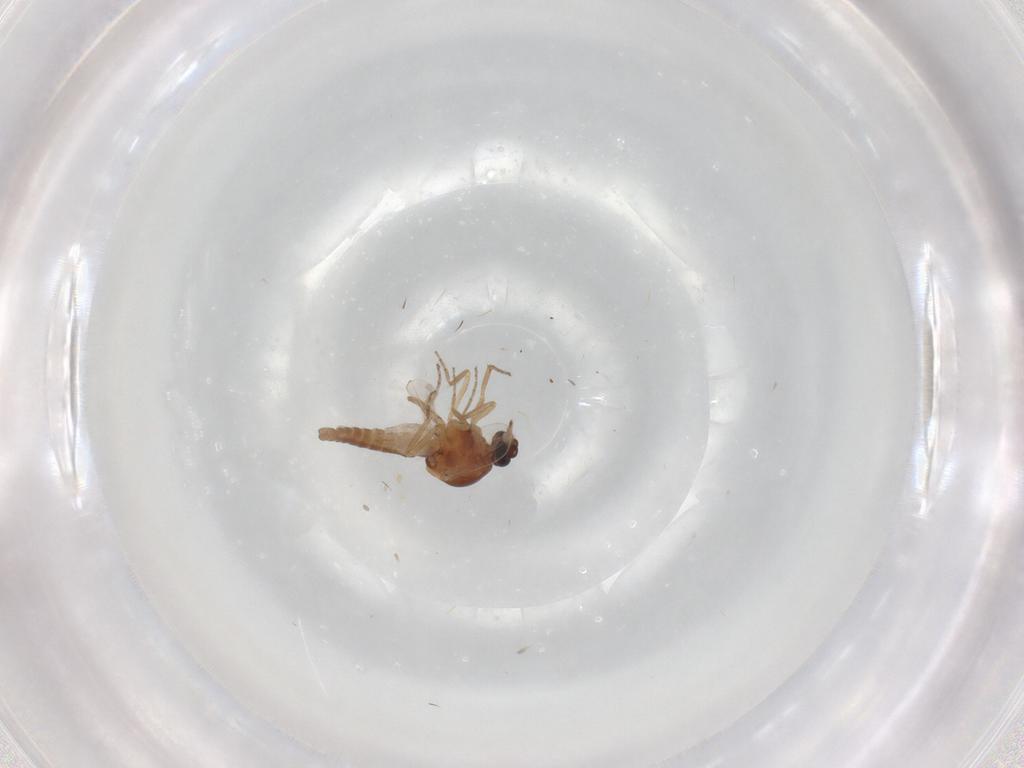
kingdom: Animalia
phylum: Arthropoda
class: Insecta
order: Diptera
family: Ceratopogonidae
